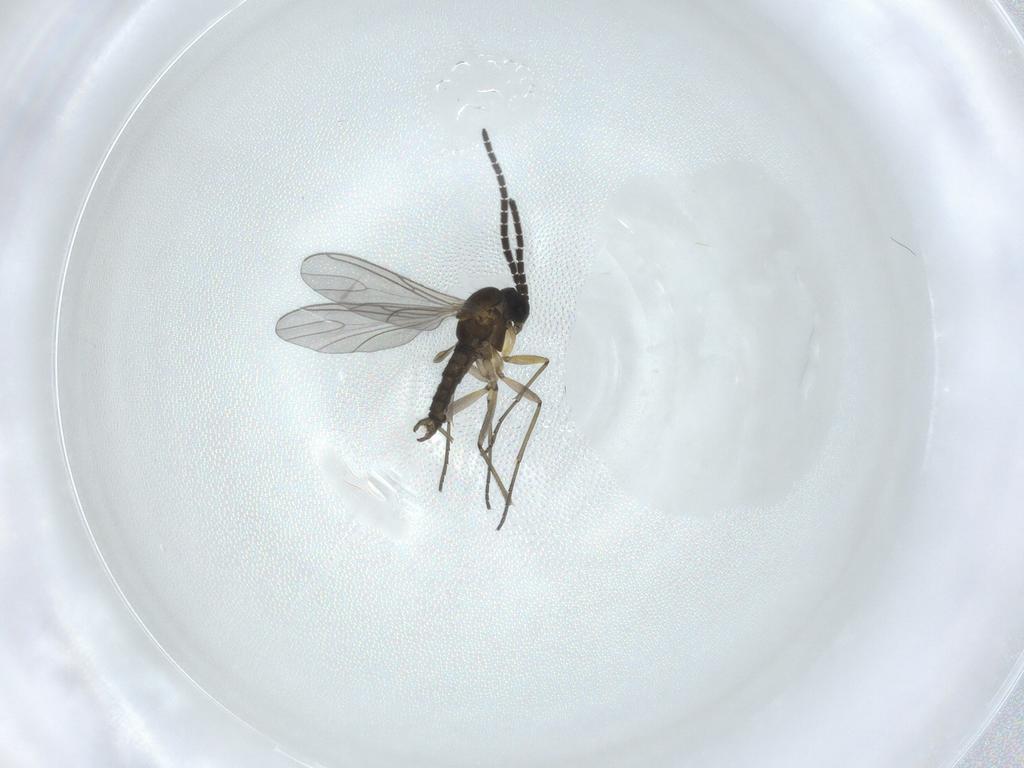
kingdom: Animalia
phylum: Arthropoda
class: Insecta
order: Diptera
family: Sciaridae
